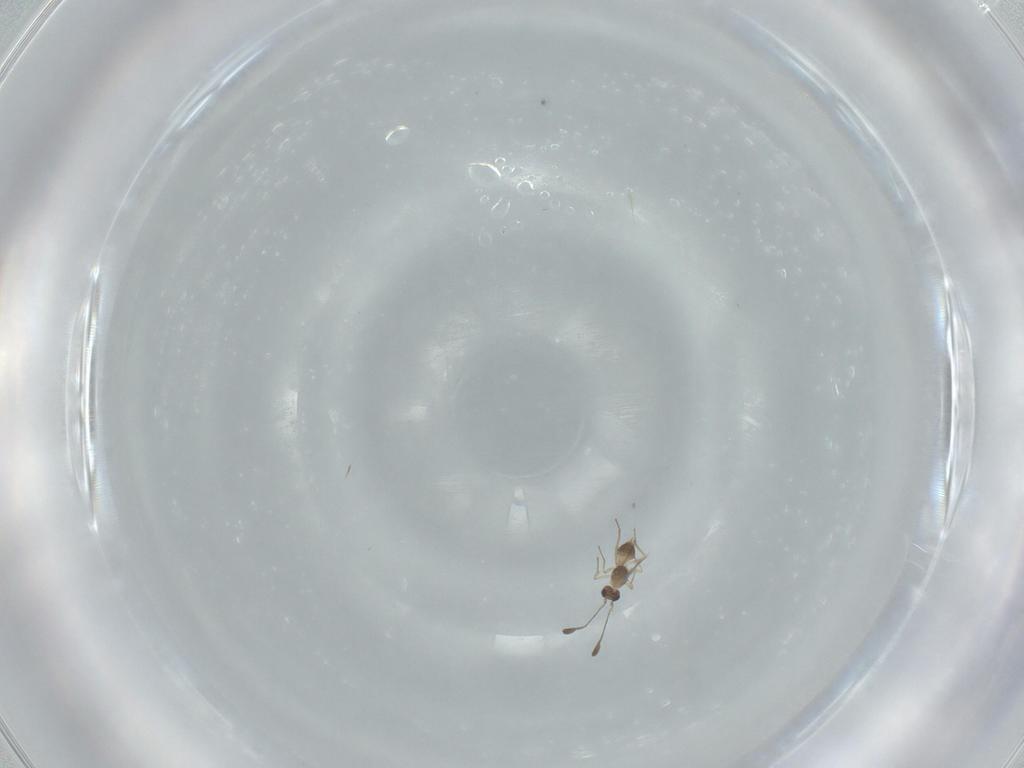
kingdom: Animalia
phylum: Arthropoda
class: Insecta
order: Hymenoptera
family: Mymaridae
